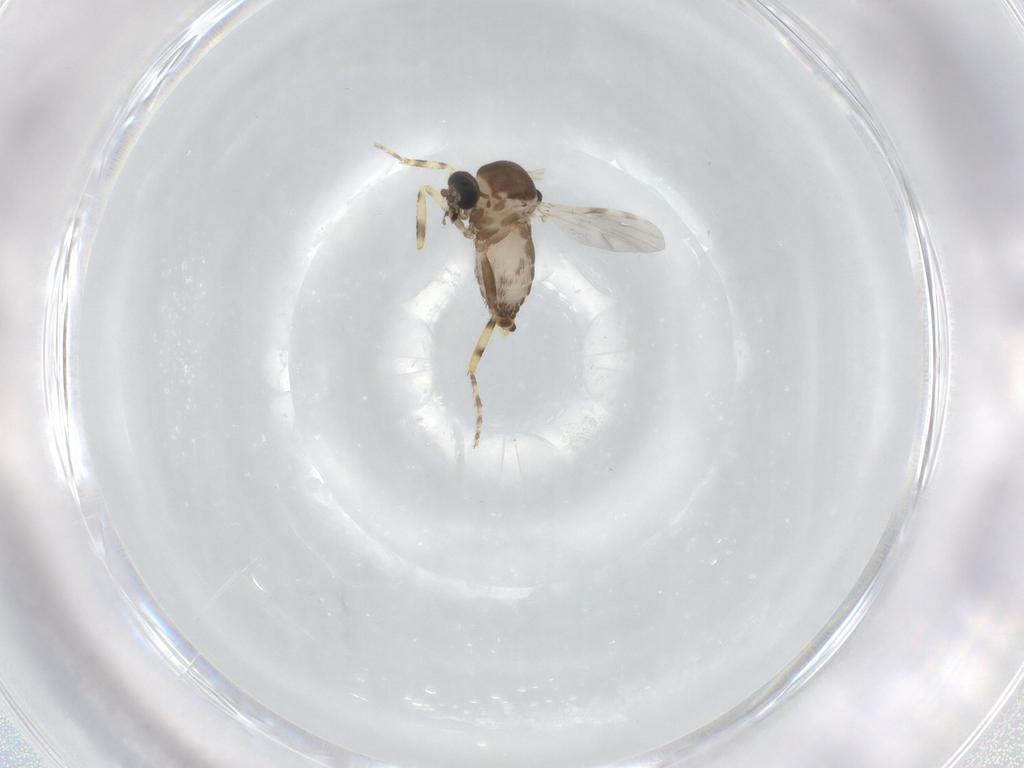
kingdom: Animalia
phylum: Arthropoda
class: Insecta
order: Diptera
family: Ceratopogonidae
